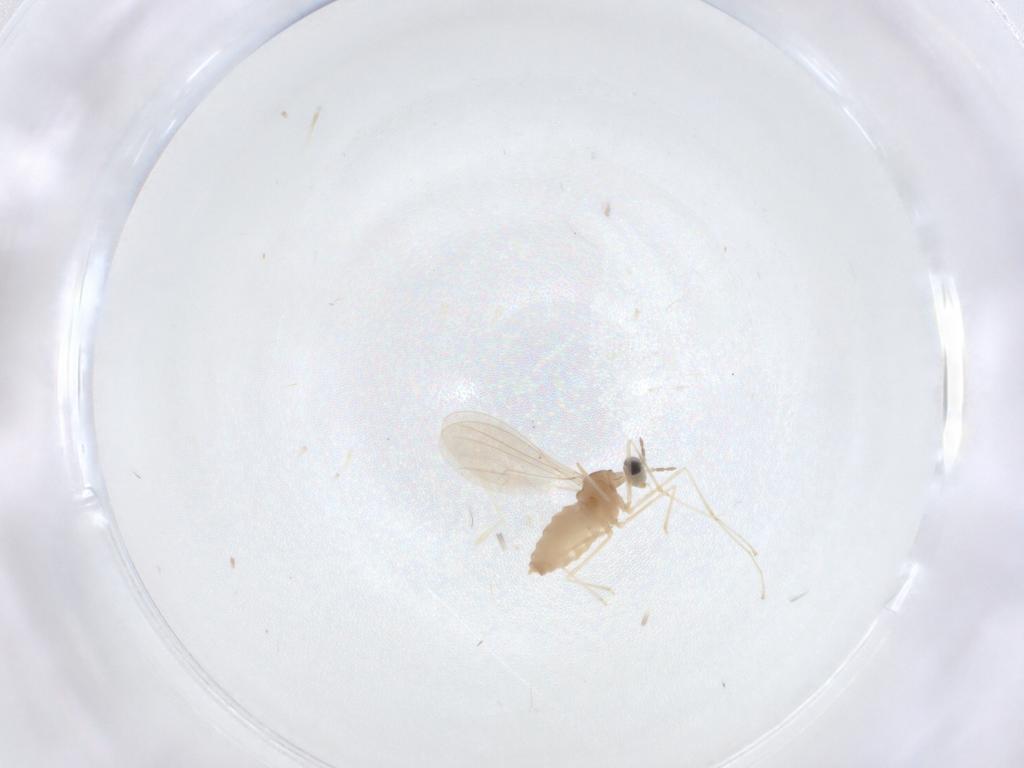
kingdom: Animalia
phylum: Arthropoda
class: Insecta
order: Diptera
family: Cecidomyiidae
